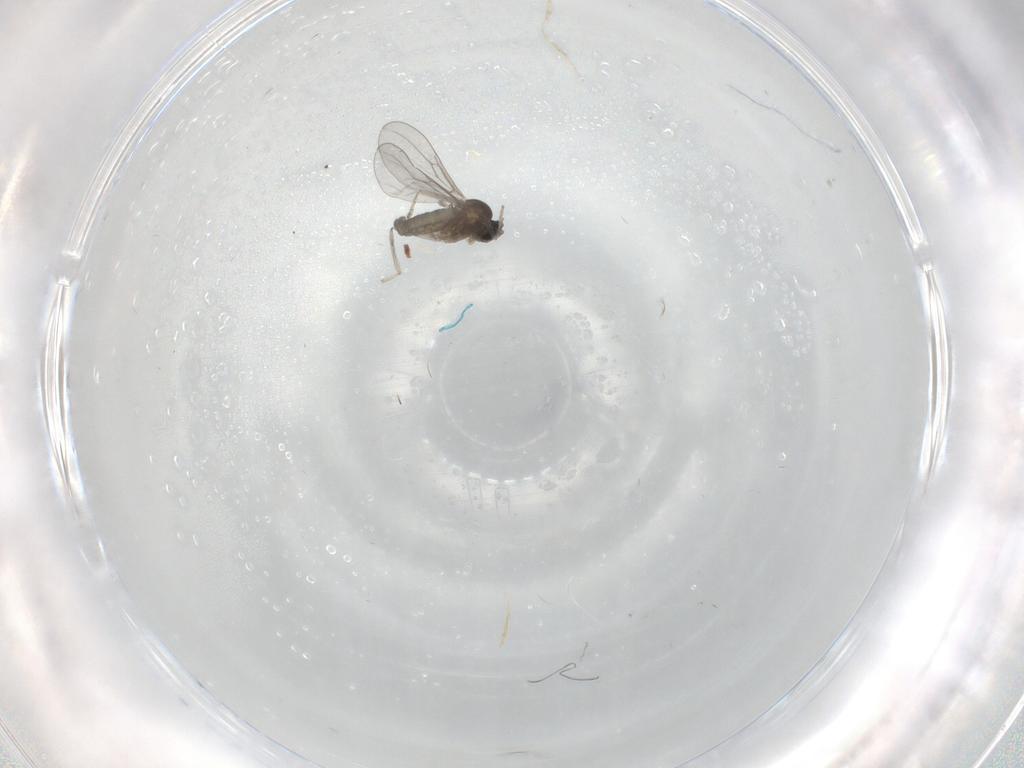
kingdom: Animalia
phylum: Arthropoda
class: Insecta
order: Diptera
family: Cecidomyiidae
